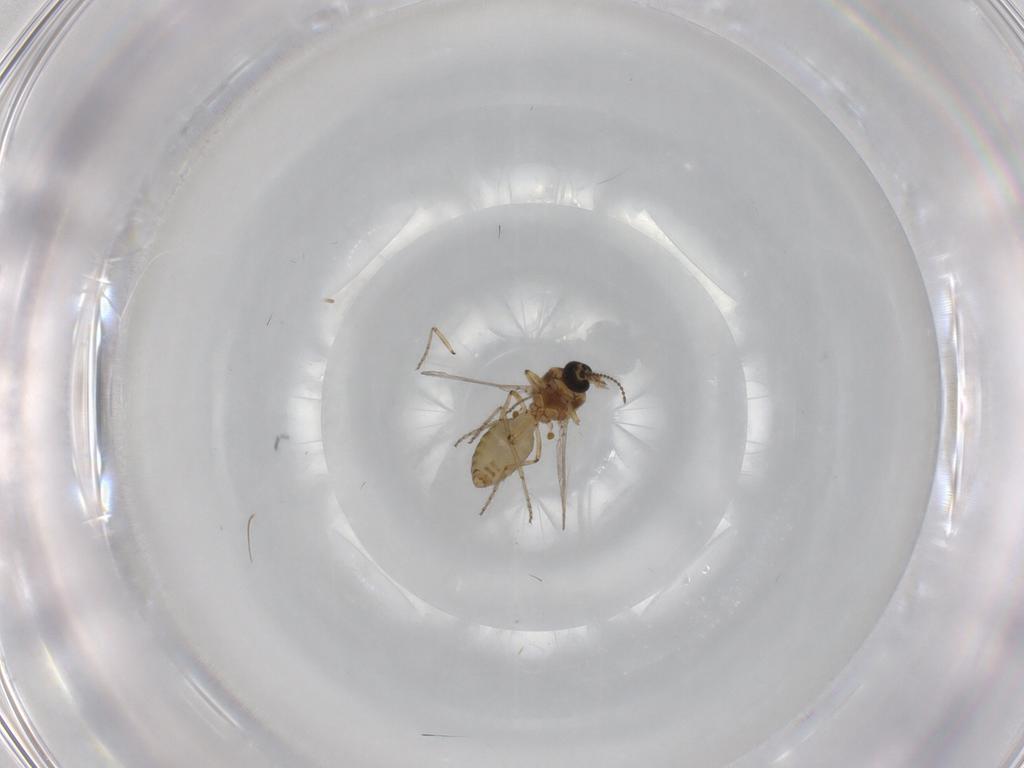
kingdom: Animalia
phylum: Arthropoda
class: Insecta
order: Diptera
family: Ceratopogonidae
